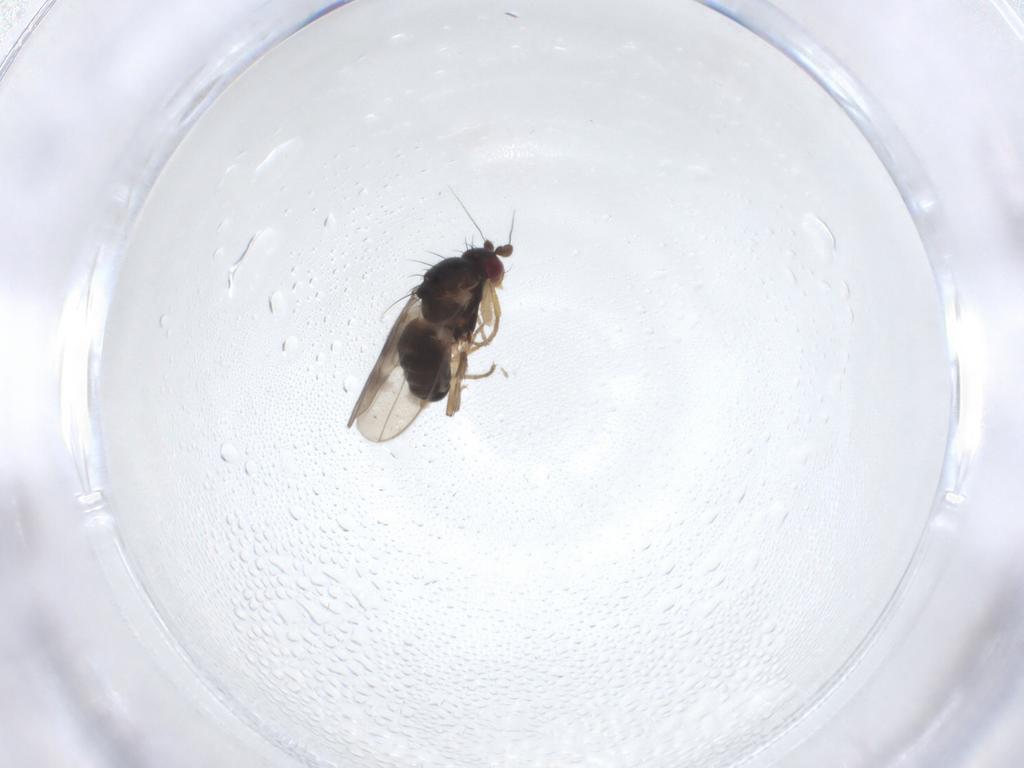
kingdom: Animalia
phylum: Arthropoda
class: Insecta
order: Diptera
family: Sphaeroceridae
